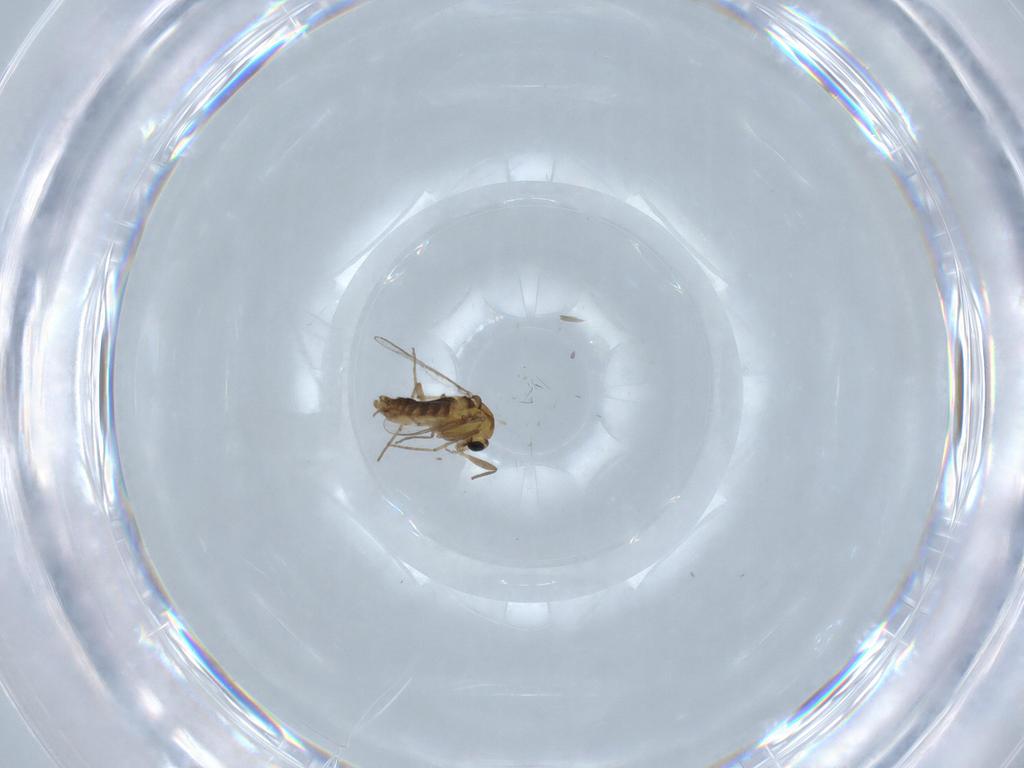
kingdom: Animalia
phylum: Arthropoda
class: Insecta
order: Diptera
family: Chironomidae
